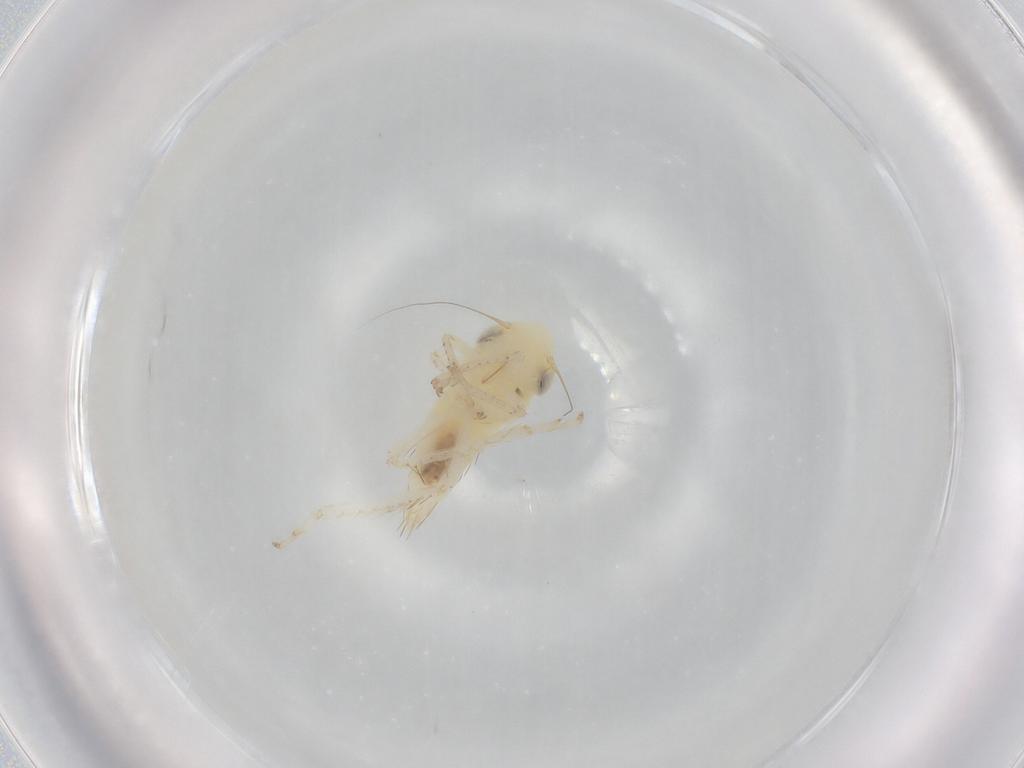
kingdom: Animalia
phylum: Arthropoda
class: Insecta
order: Hemiptera
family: Cicadellidae
